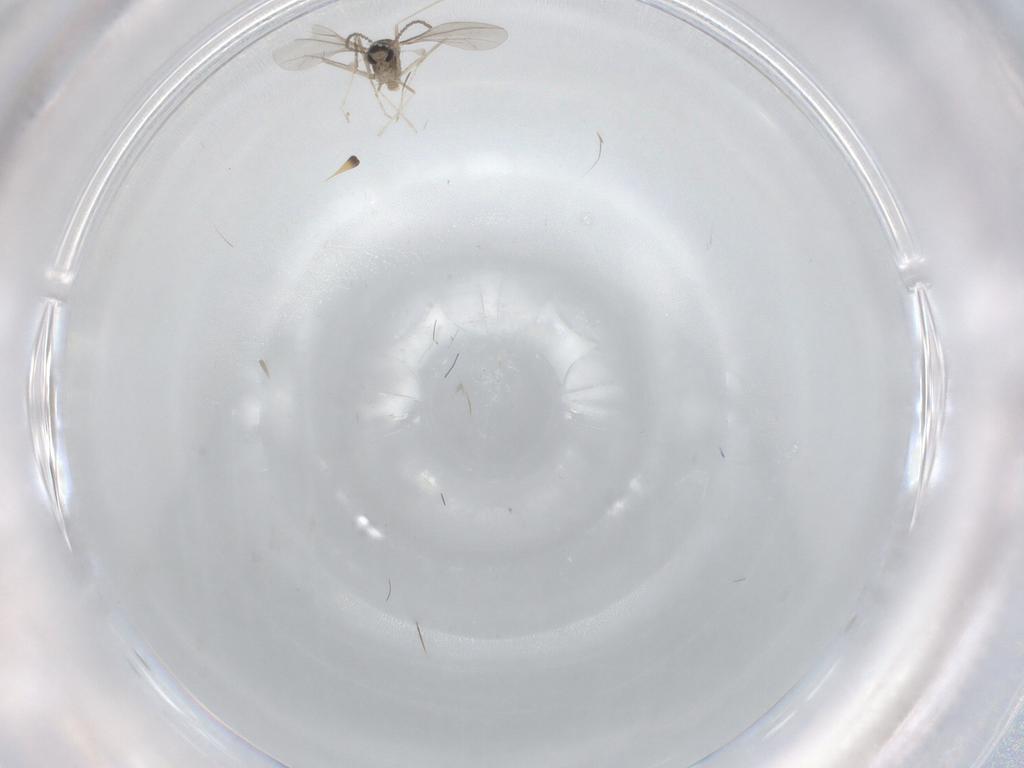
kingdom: Animalia
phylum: Arthropoda
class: Insecta
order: Diptera
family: Cecidomyiidae
